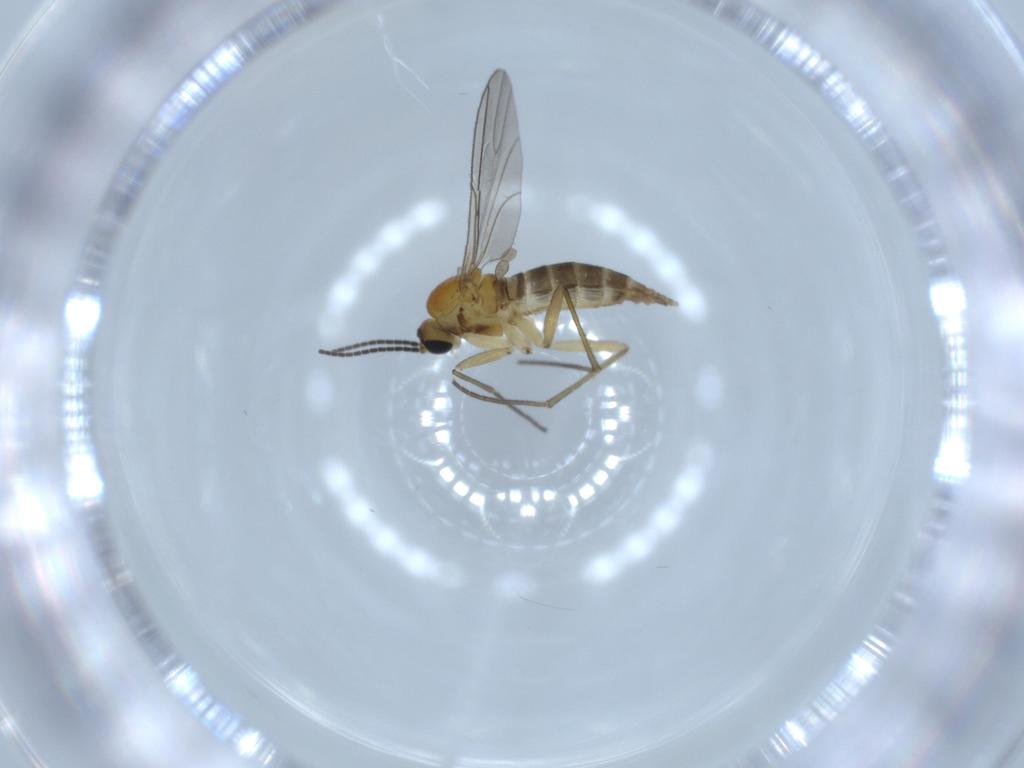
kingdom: Animalia
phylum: Arthropoda
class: Insecta
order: Diptera
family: Sciaridae
